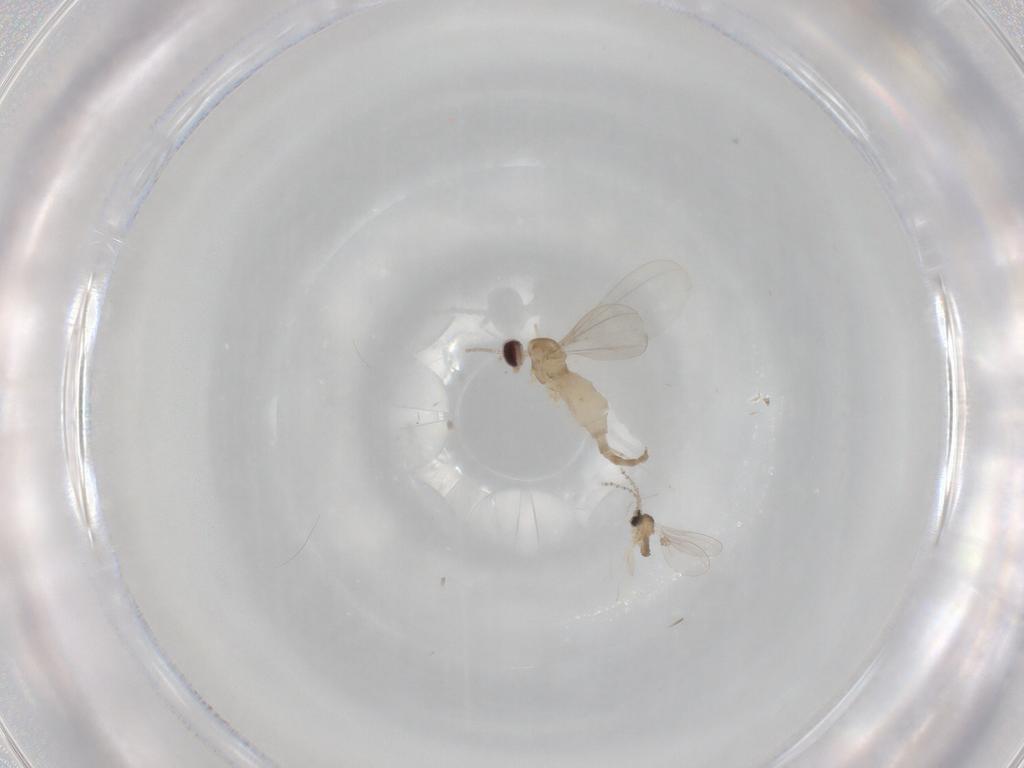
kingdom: Animalia
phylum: Arthropoda
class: Insecta
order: Diptera
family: Cecidomyiidae
